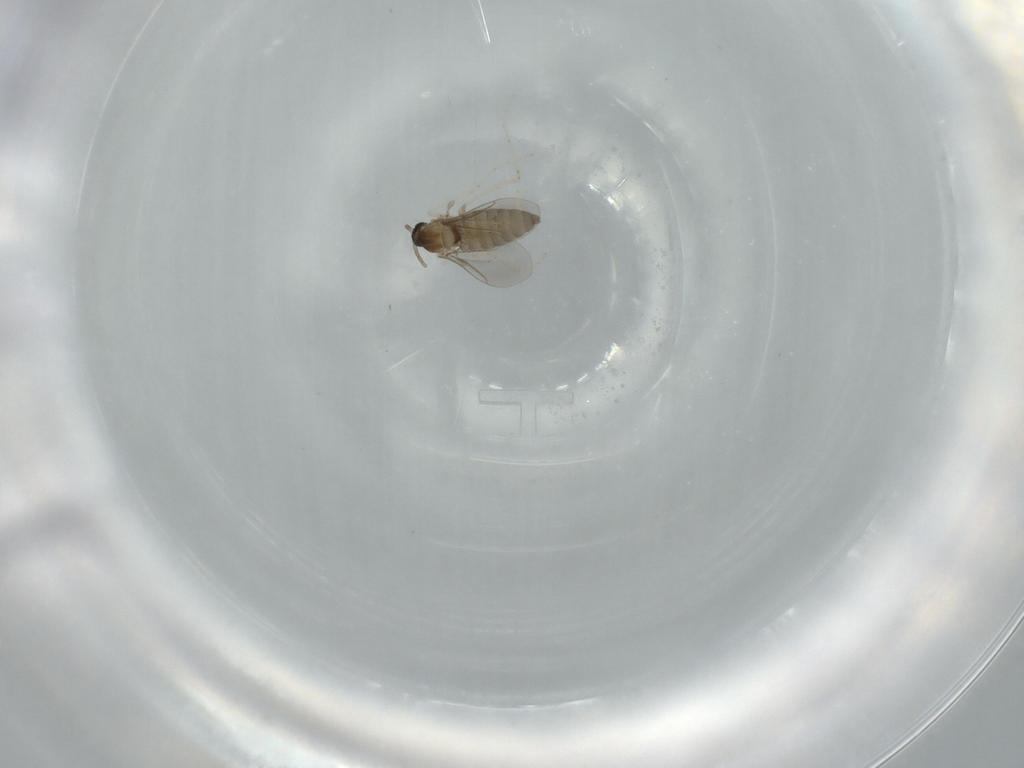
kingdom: Animalia
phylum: Arthropoda
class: Insecta
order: Diptera
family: Cecidomyiidae
